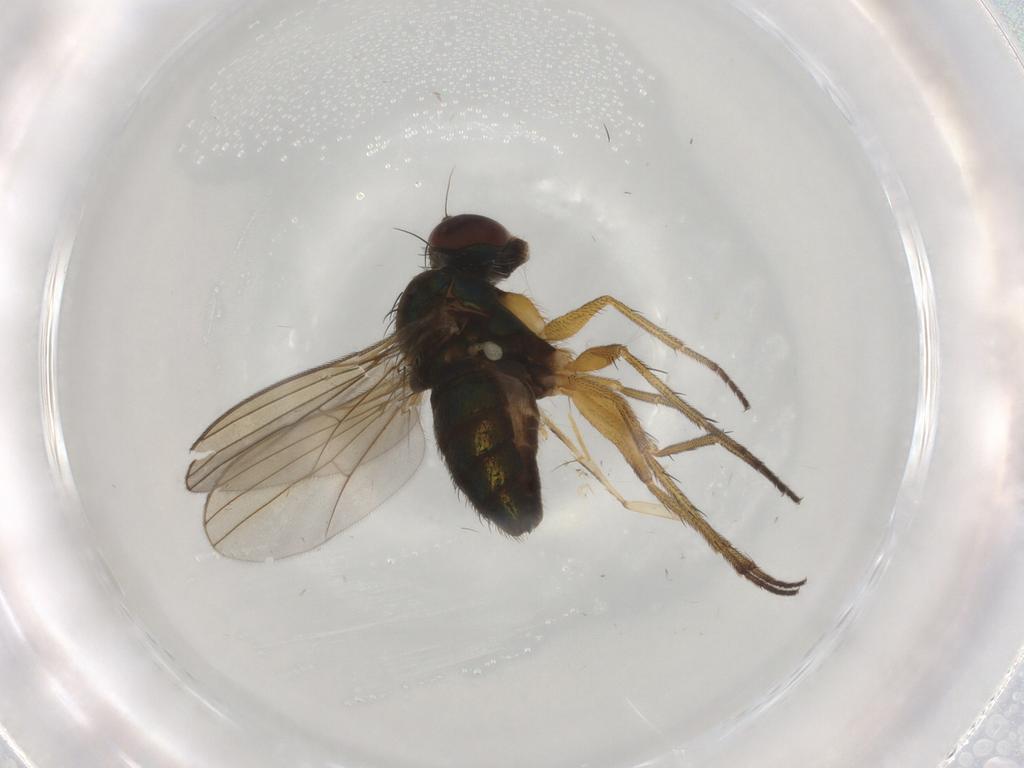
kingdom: Animalia
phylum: Arthropoda
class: Insecta
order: Diptera
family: Dolichopodidae
